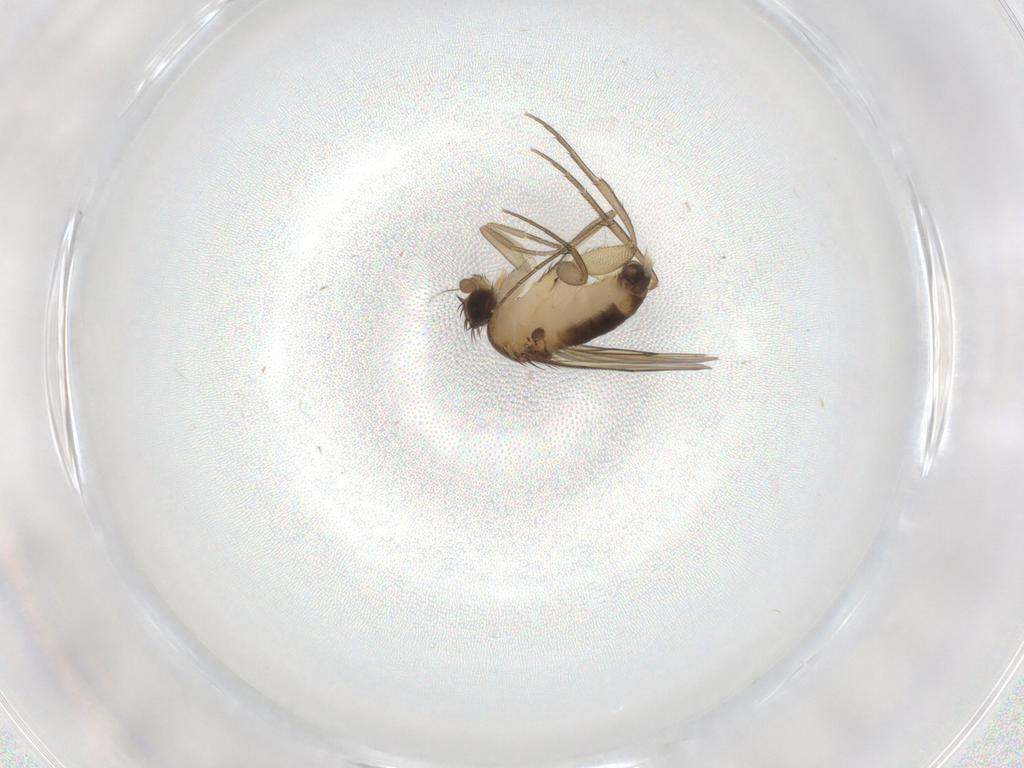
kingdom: Animalia
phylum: Arthropoda
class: Insecta
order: Diptera
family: Cecidomyiidae
